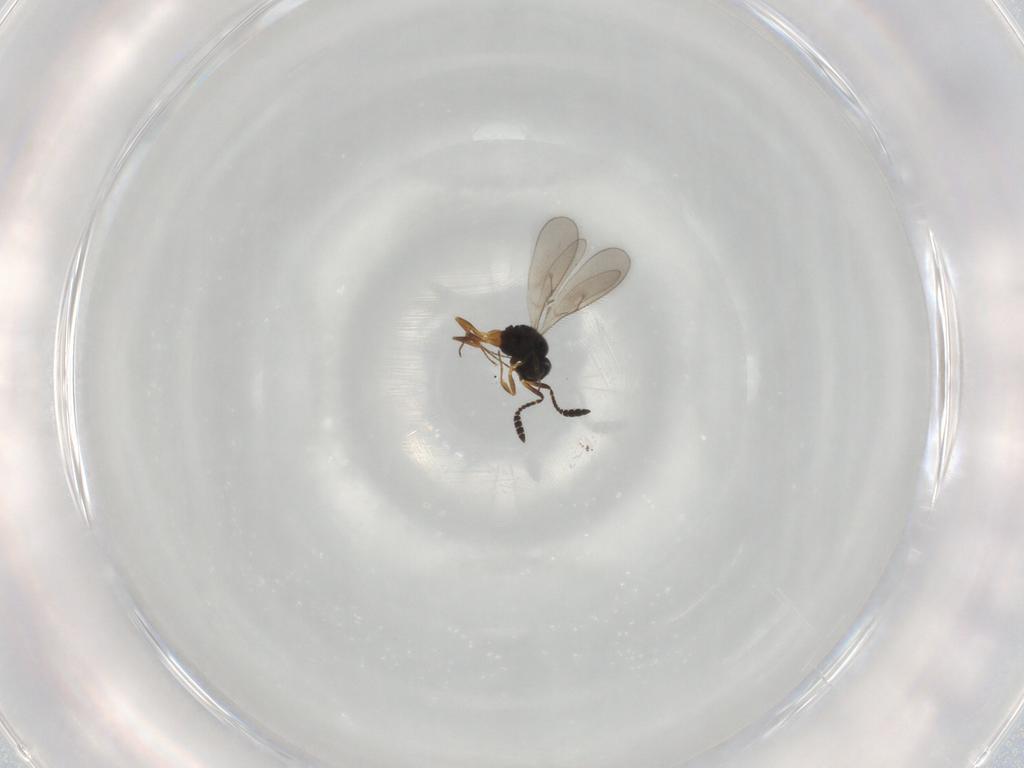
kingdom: Animalia
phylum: Arthropoda
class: Insecta
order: Hymenoptera
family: Scelionidae
